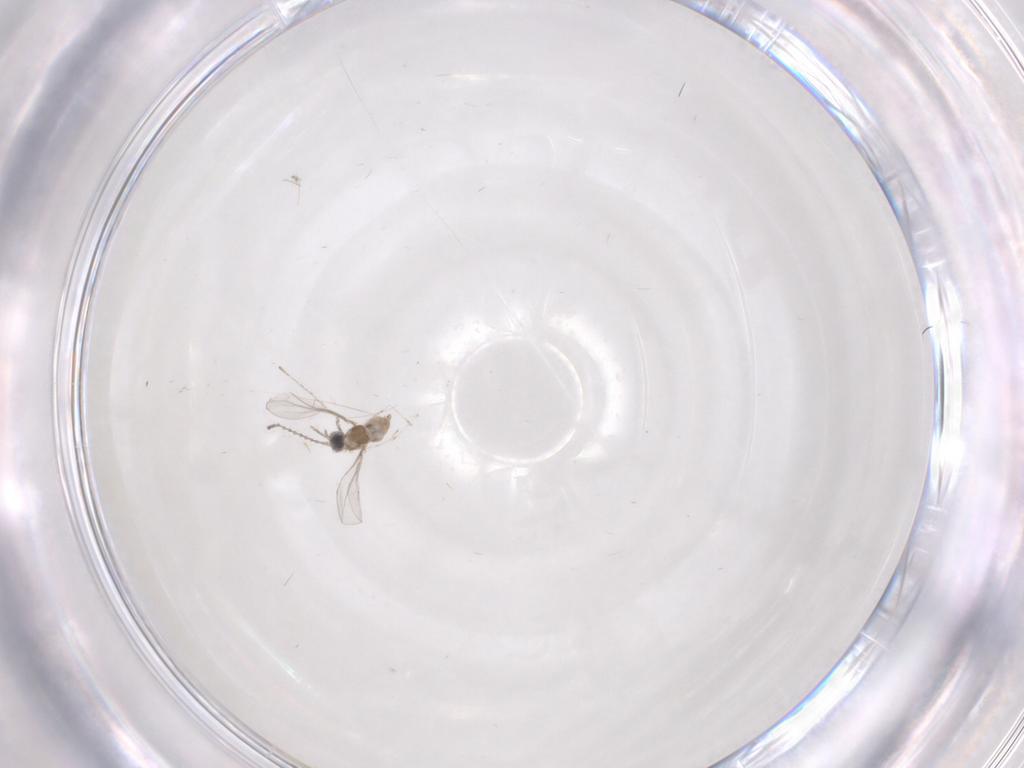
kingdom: Animalia
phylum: Arthropoda
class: Insecta
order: Diptera
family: Cecidomyiidae
